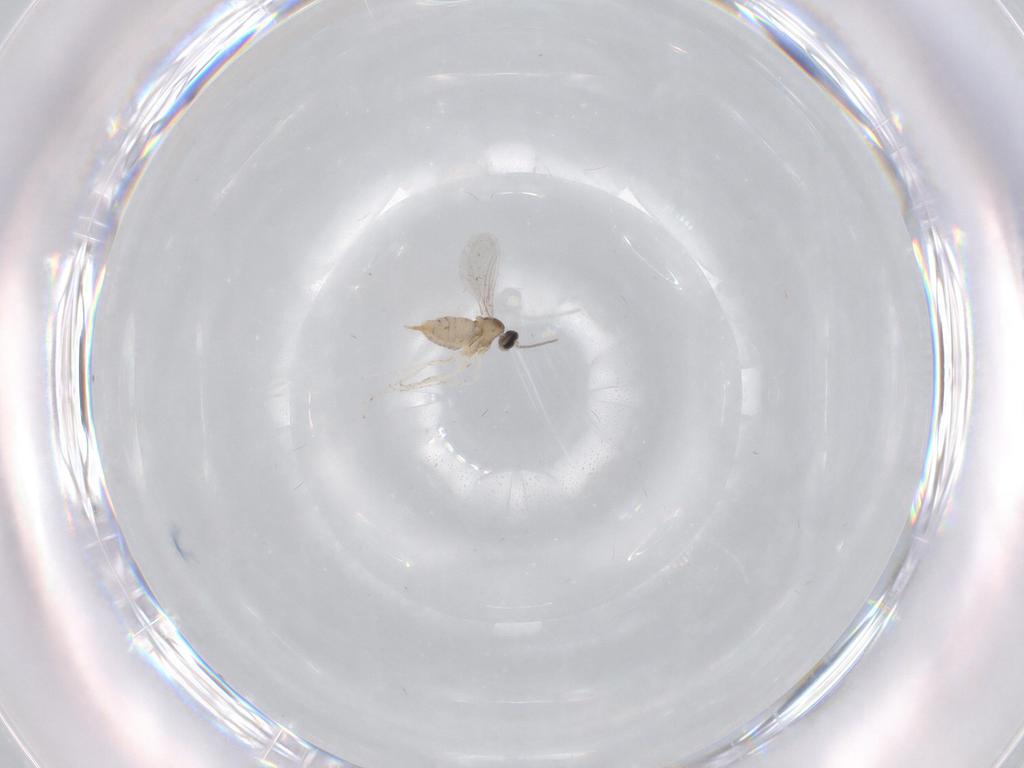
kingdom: Animalia
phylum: Arthropoda
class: Insecta
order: Diptera
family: Cecidomyiidae
